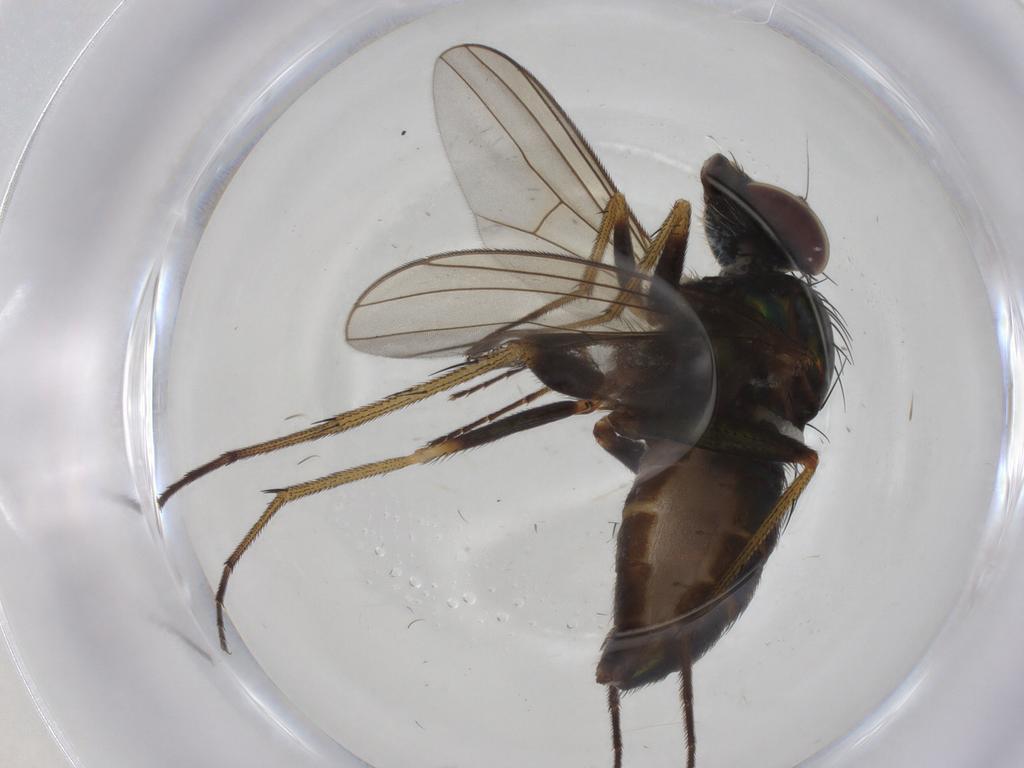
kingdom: Animalia
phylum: Arthropoda
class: Insecta
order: Diptera
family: Dolichopodidae
